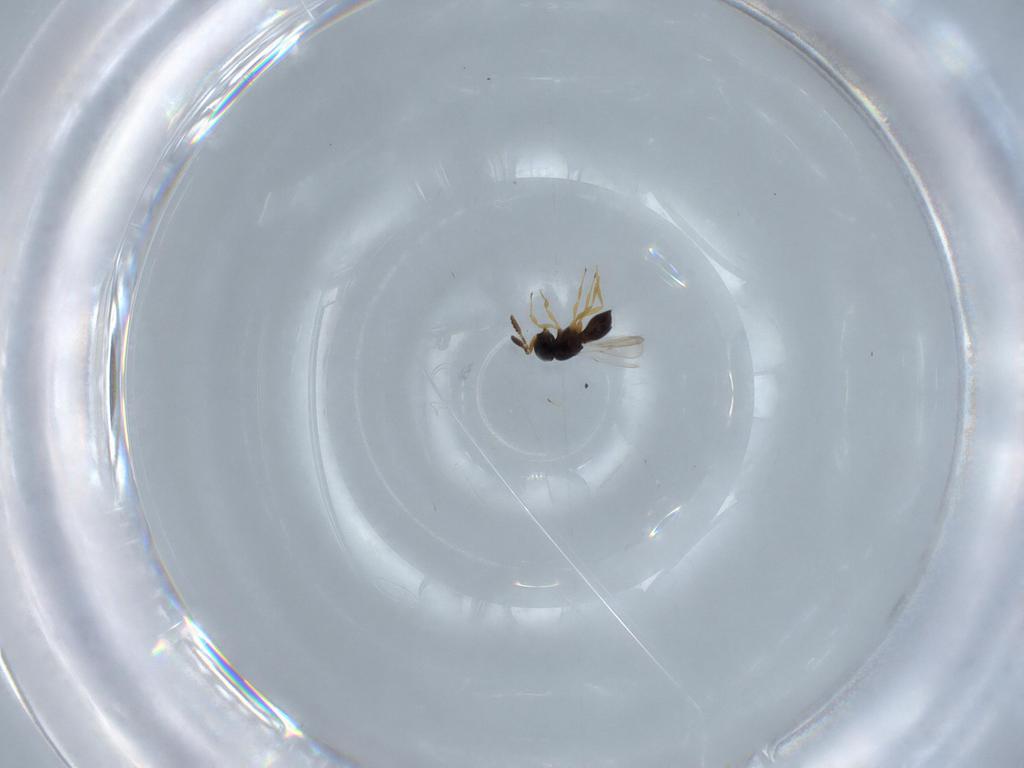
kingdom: Animalia
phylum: Arthropoda
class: Insecta
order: Hymenoptera
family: Scelionidae
